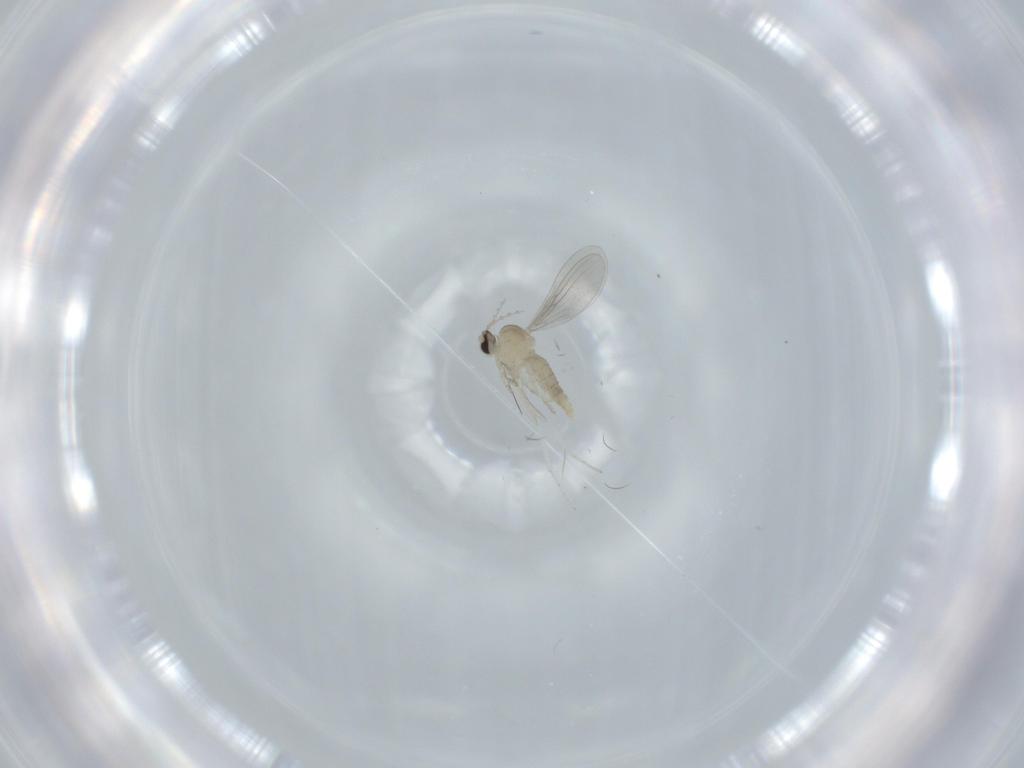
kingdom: Animalia
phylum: Arthropoda
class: Insecta
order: Diptera
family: Cecidomyiidae
